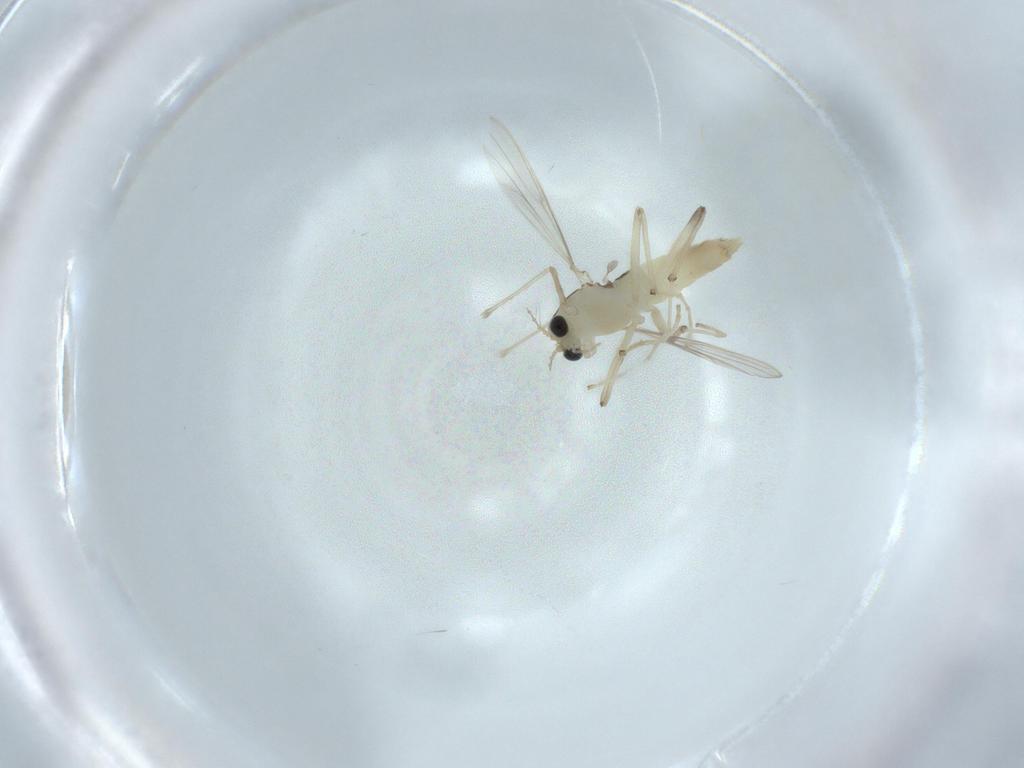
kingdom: Animalia
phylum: Arthropoda
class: Insecta
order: Diptera
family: Chironomidae
